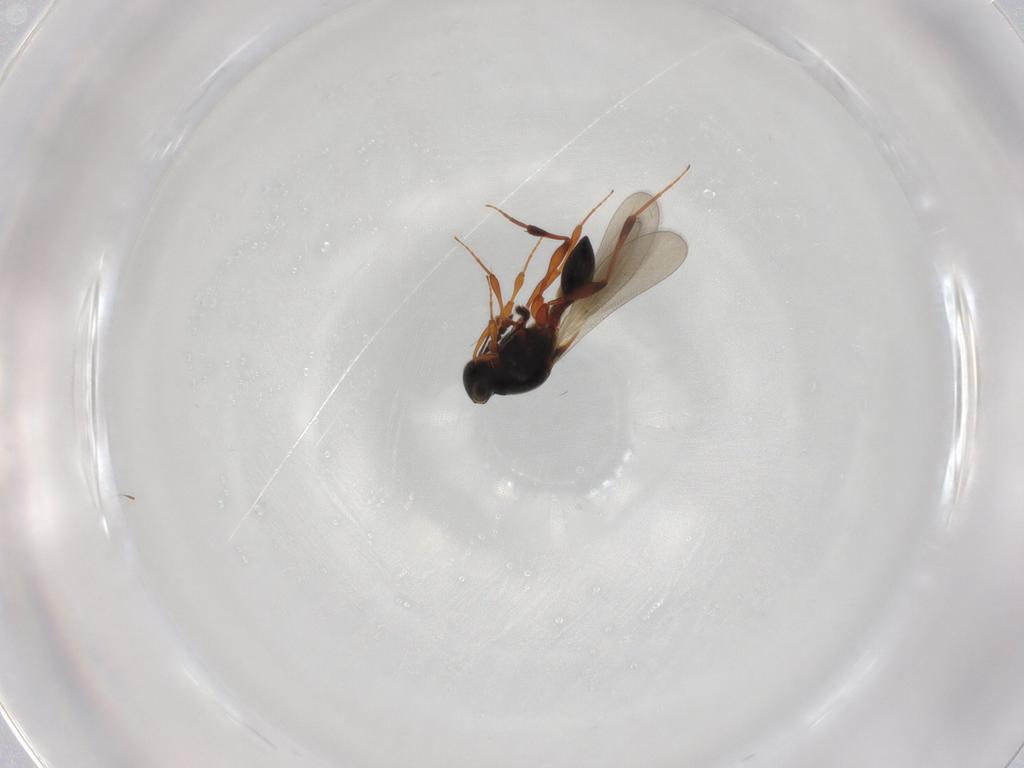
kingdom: Animalia
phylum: Arthropoda
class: Insecta
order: Hymenoptera
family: Platygastridae
